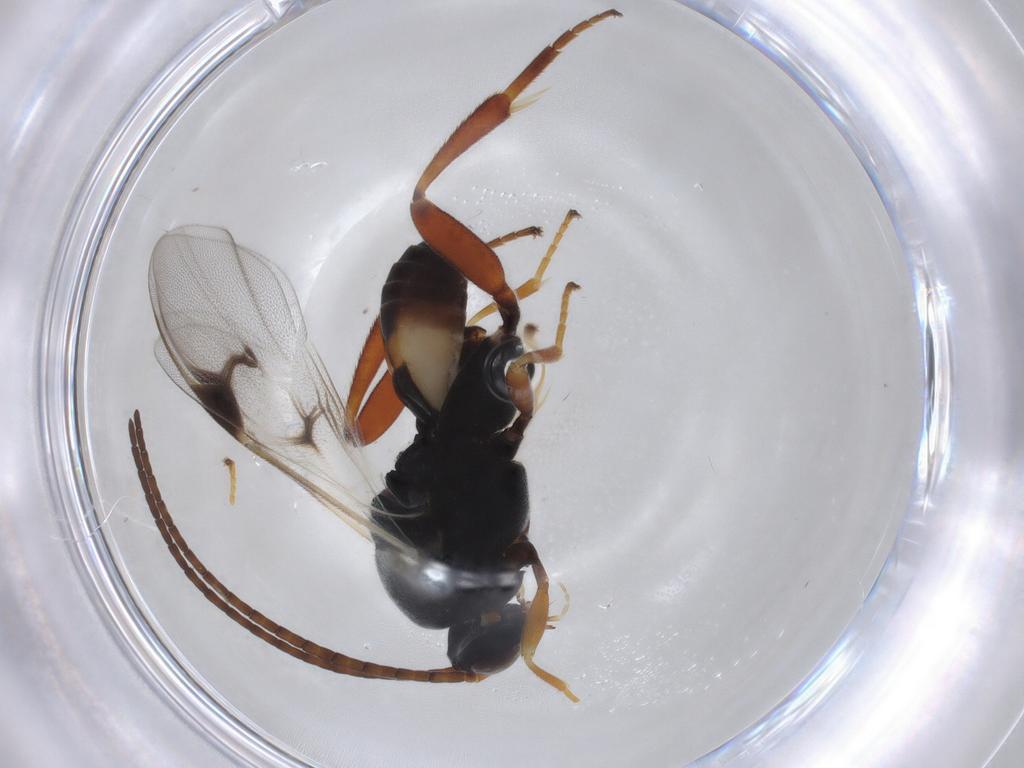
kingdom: Animalia
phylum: Arthropoda
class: Insecta
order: Hymenoptera
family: Braconidae
